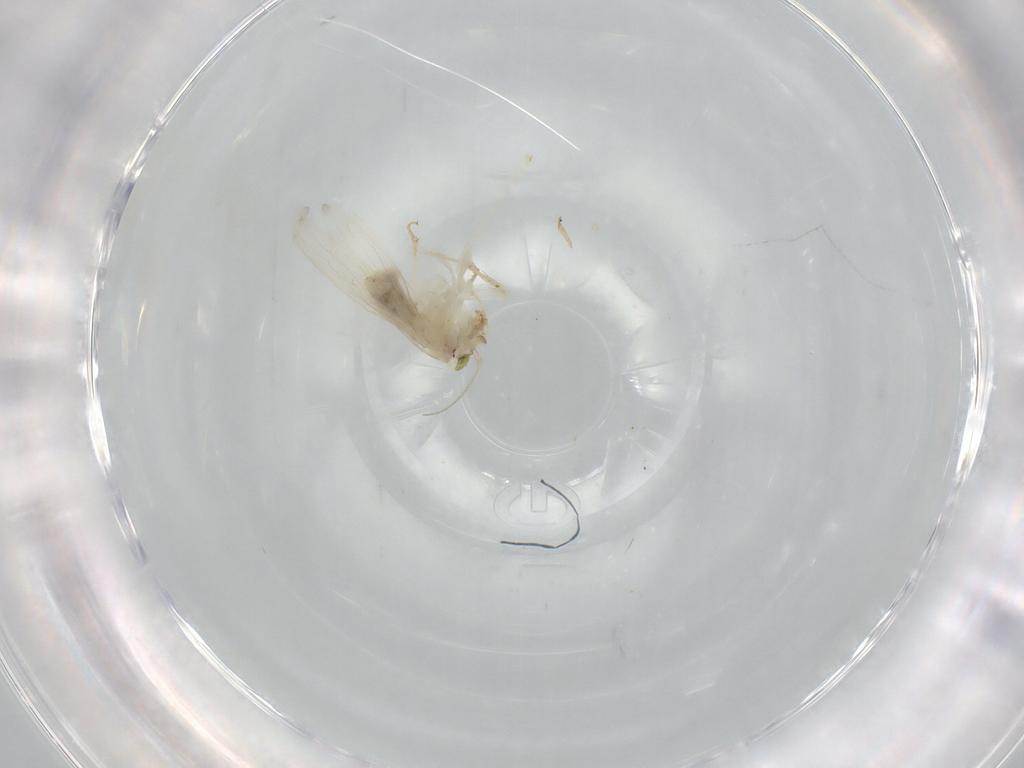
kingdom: Animalia
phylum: Arthropoda
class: Insecta
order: Psocodea
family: Lepidopsocidae
